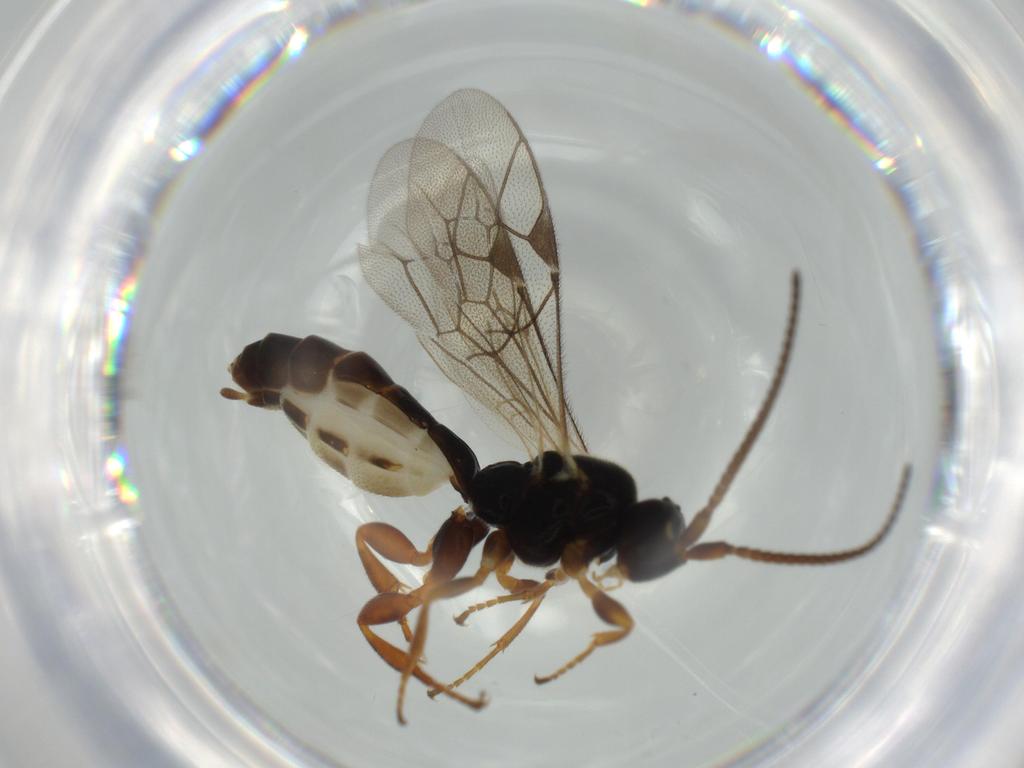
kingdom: Animalia
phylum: Arthropoda
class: Insecta
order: Hymenoptera
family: Ichneumonidae
